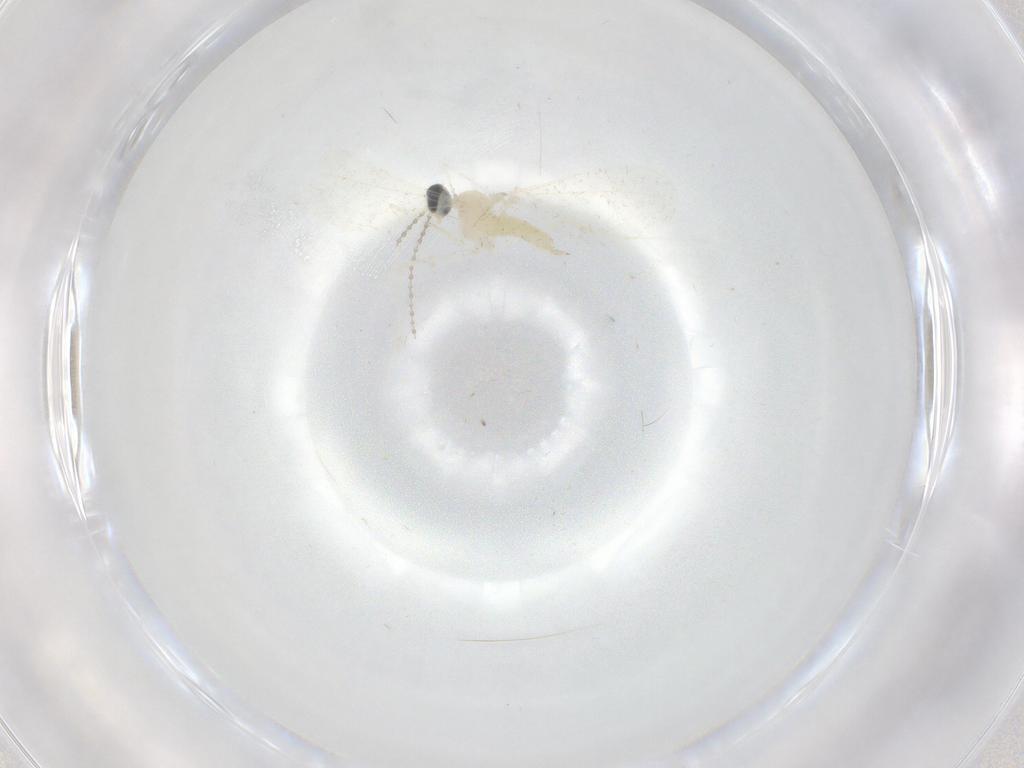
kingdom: Animalia
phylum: Arthropoda
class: Insecta
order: Diptera
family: Cecidomyiidae
